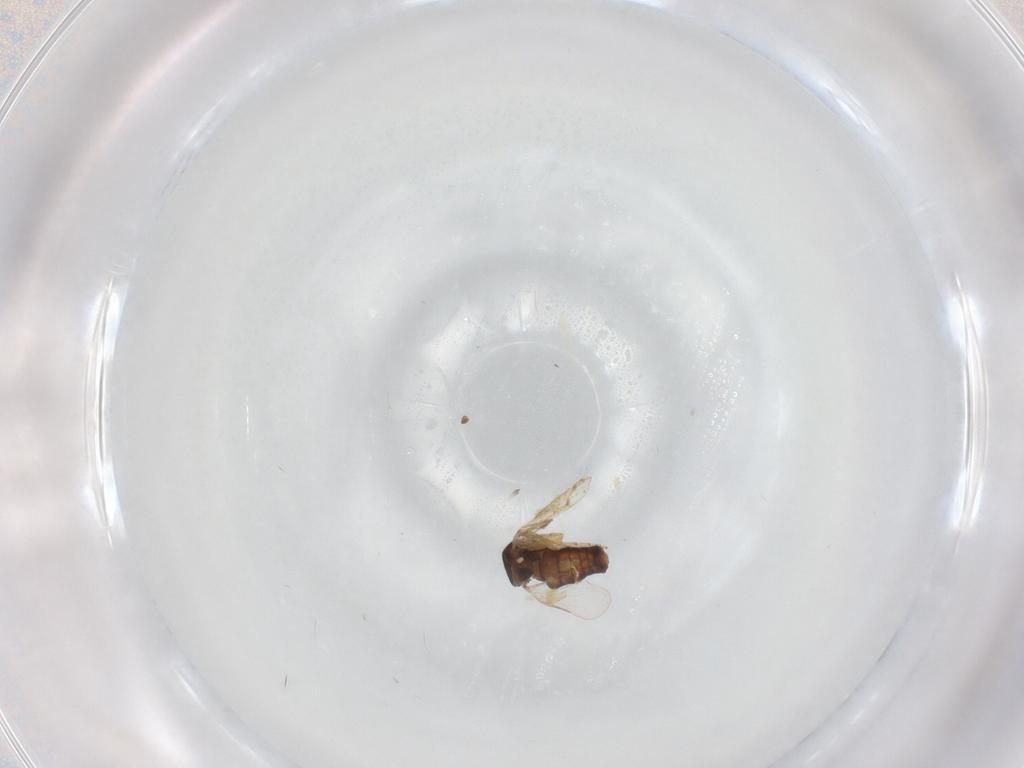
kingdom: Animalia
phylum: Arthropoda
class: Insecta
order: Diptera
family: Ceratopogonidae
